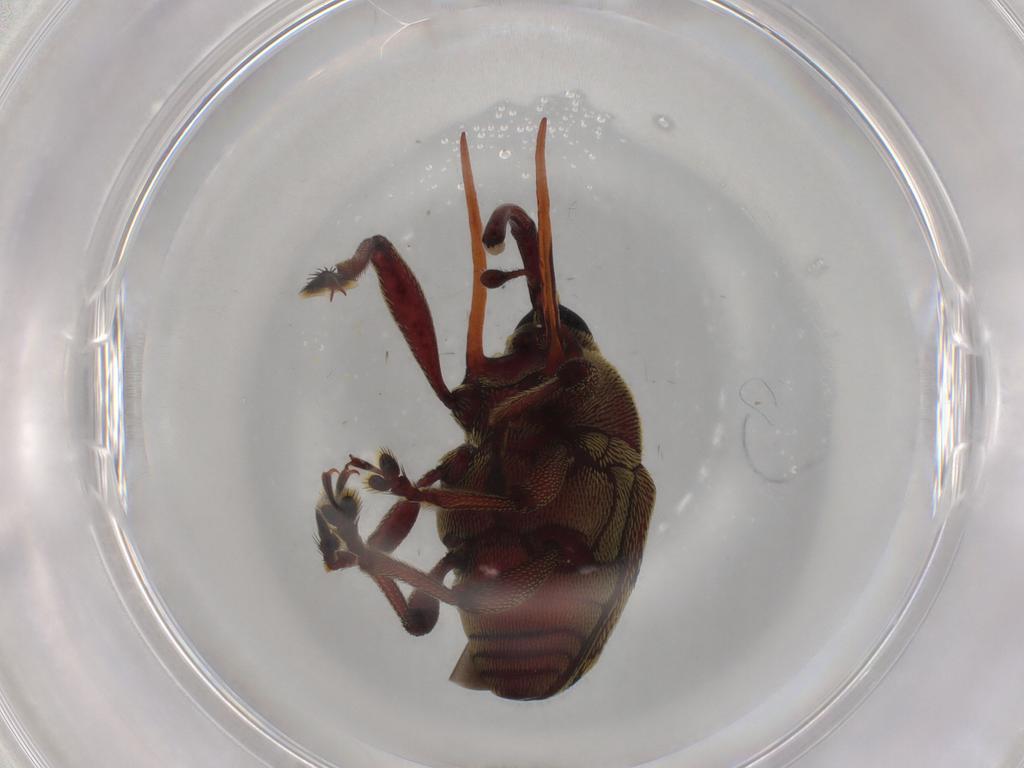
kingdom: Animalia
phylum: Arthropoda
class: Insecta
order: Coleoptera
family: Curculionidae
